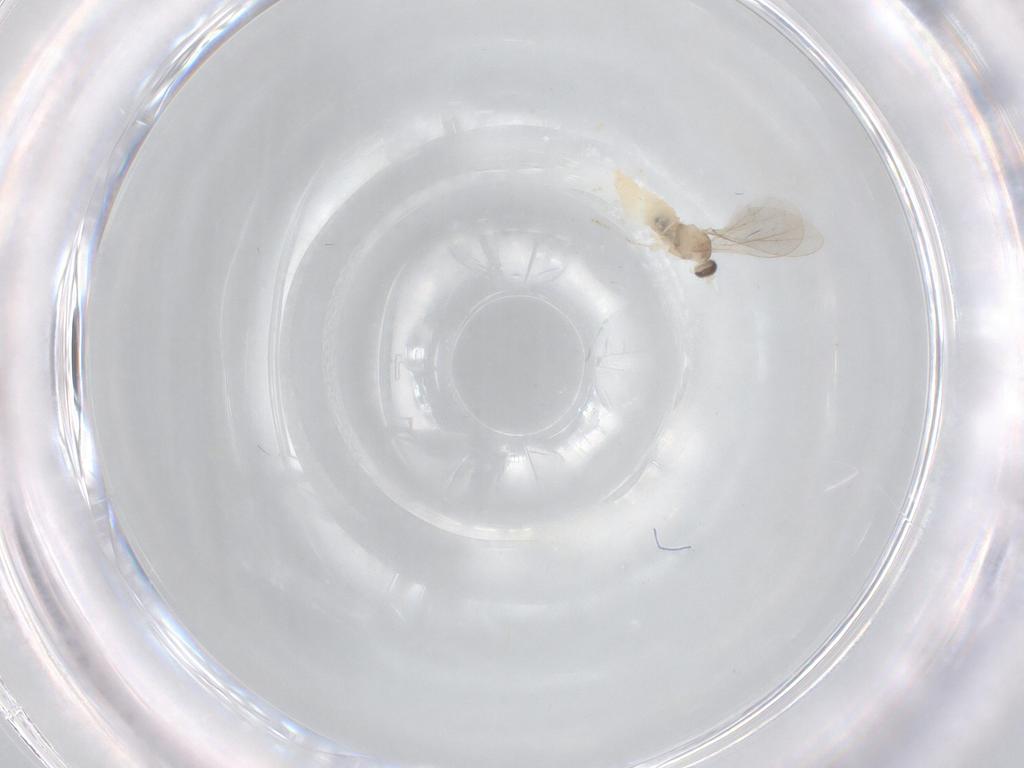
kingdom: Animalia
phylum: Arthropoda
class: Insecta
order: Diptera
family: Cecidomyiidae
